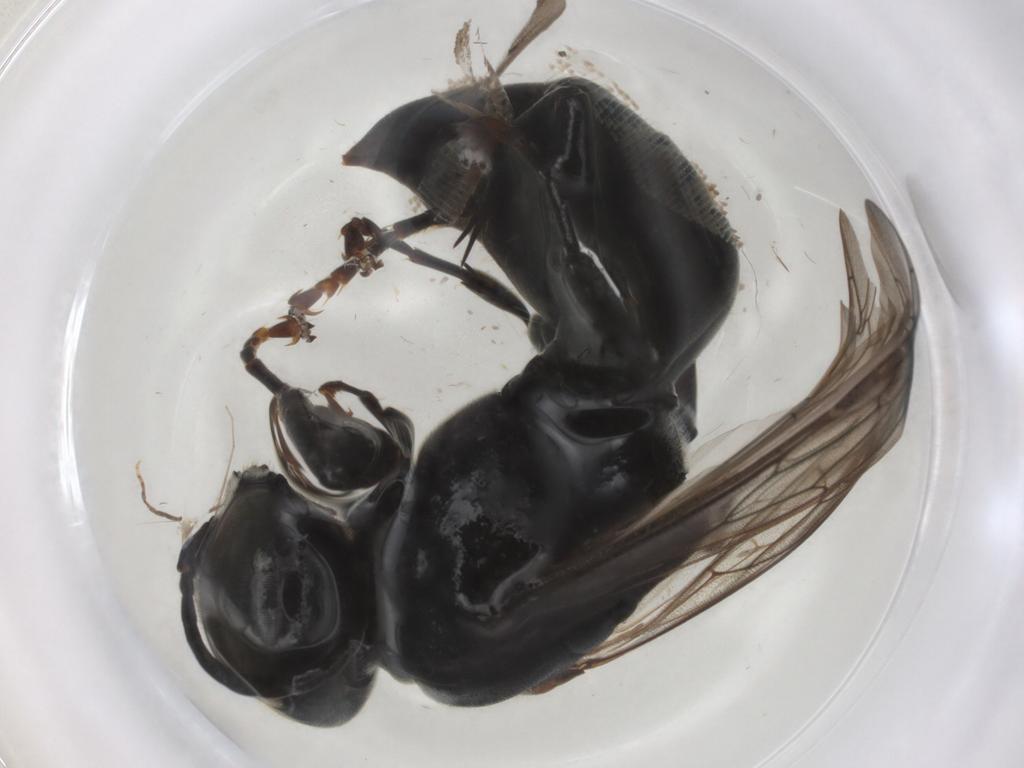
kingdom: Animalia
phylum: Arthropoda
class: Insecta
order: Hymenoptera
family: Crabronidae
